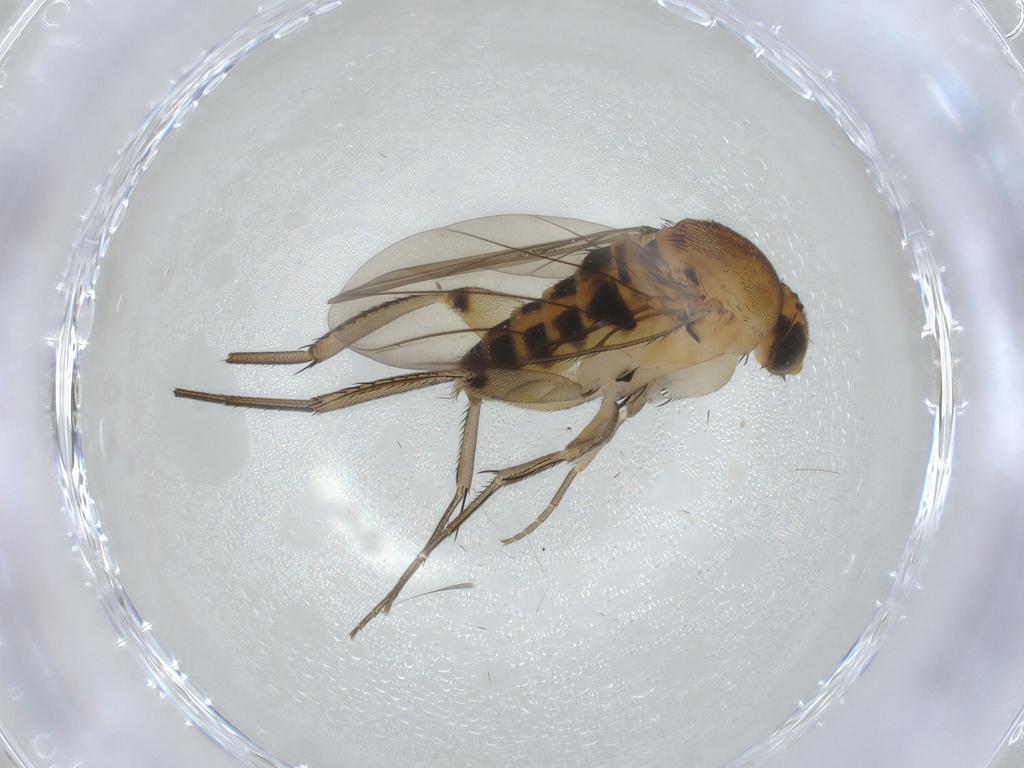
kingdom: Animalia
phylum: Arthropoda
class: Insecta
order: Diptera
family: Phoridae
